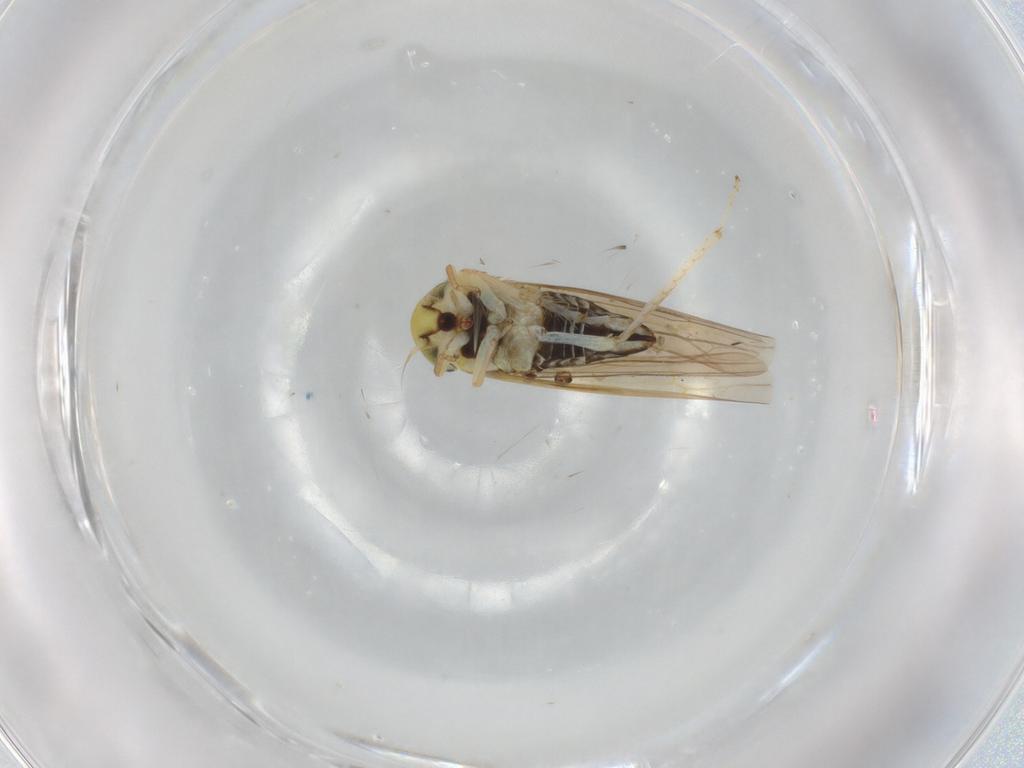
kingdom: Animalia
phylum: Arthropoda
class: Insecta
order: Hemiptera
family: Cicadellidae
